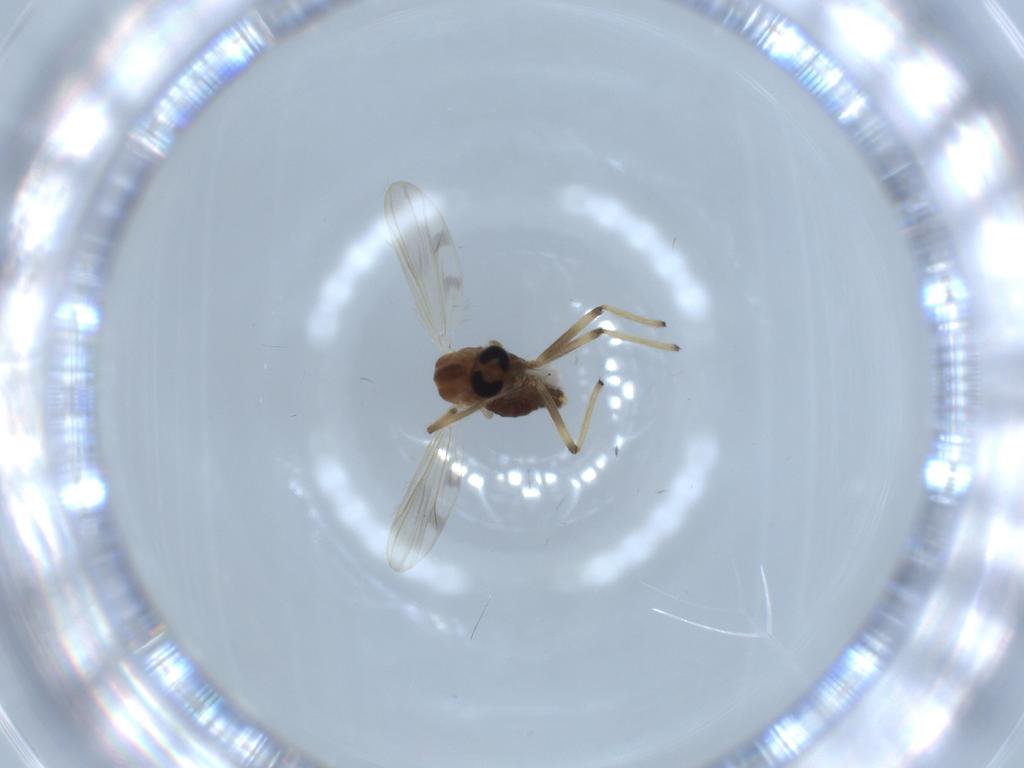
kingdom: Animalia
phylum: Arthropoda
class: Insecta
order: Diptera
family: Chironomidae
